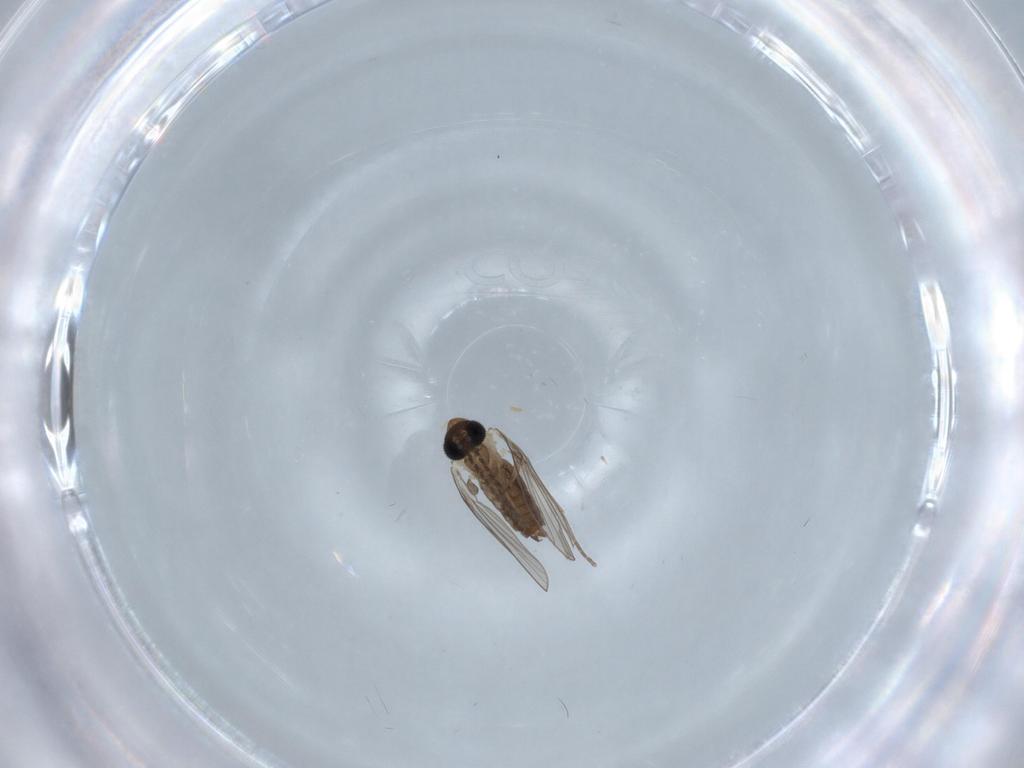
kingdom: Animalia
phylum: Arthropoda
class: Insecta
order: Diptera
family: Psychodidae
